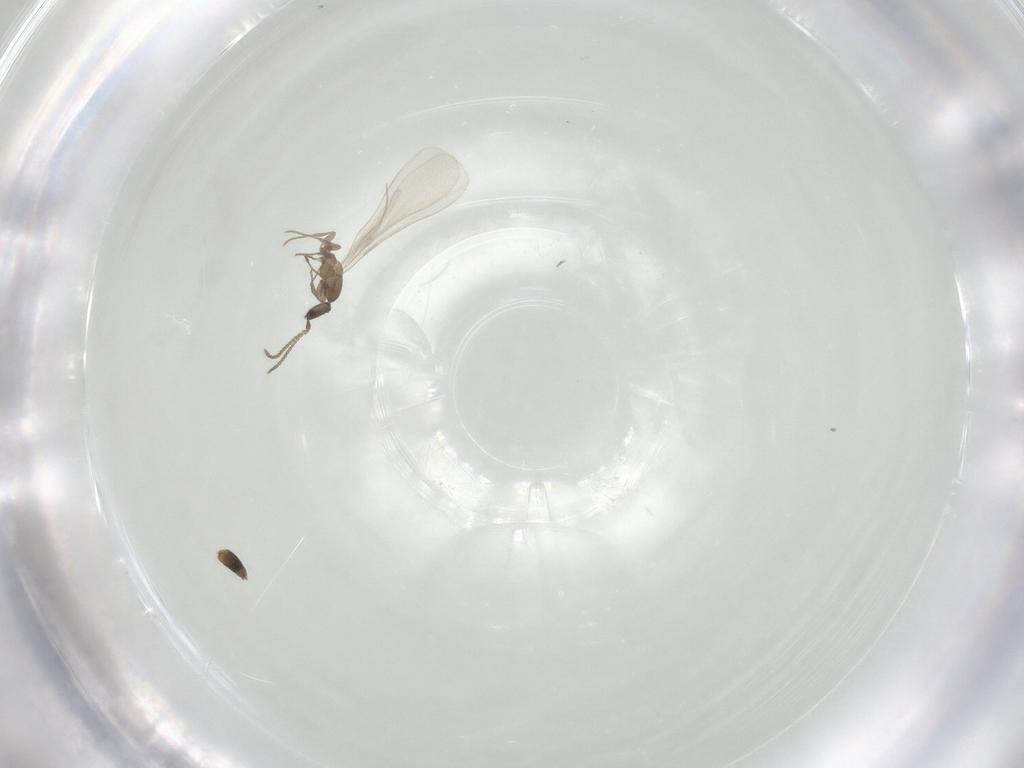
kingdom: Animalia
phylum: Arthropoda
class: Insecta
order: Hymenoptera
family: Formicidae
